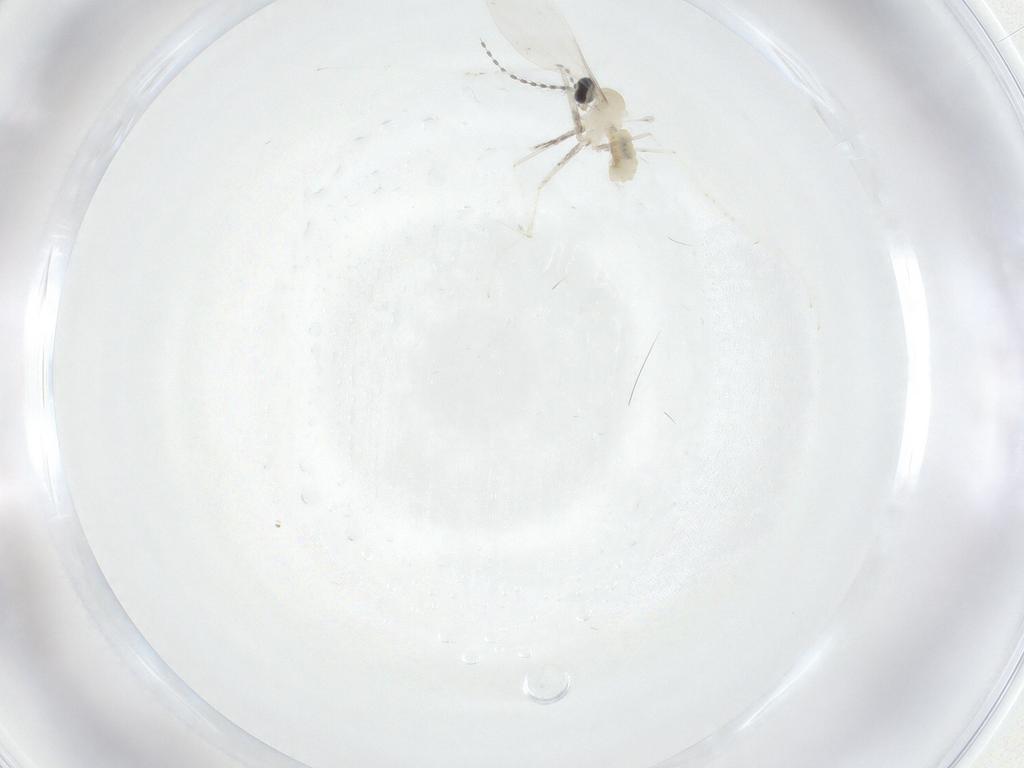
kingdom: Animalia
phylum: Arthropoda
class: Insecta
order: Diptera
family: Cecidomyiidae
